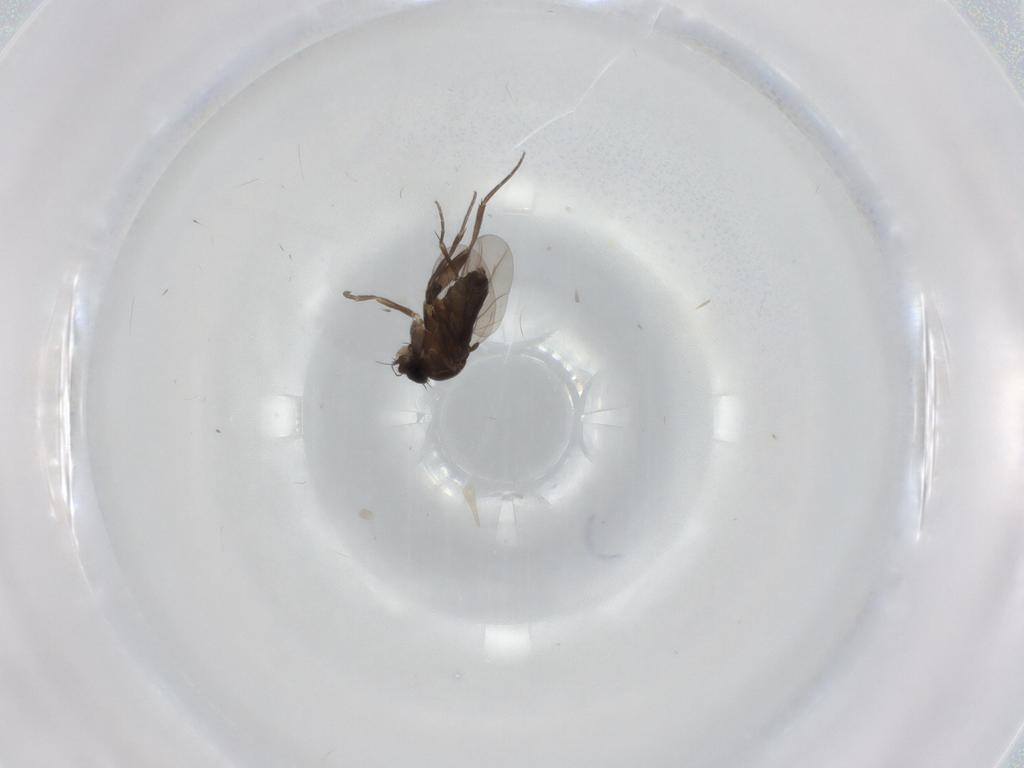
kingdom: Animalia
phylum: Arthropoda
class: Insecta
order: Diptera
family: Phoridae
